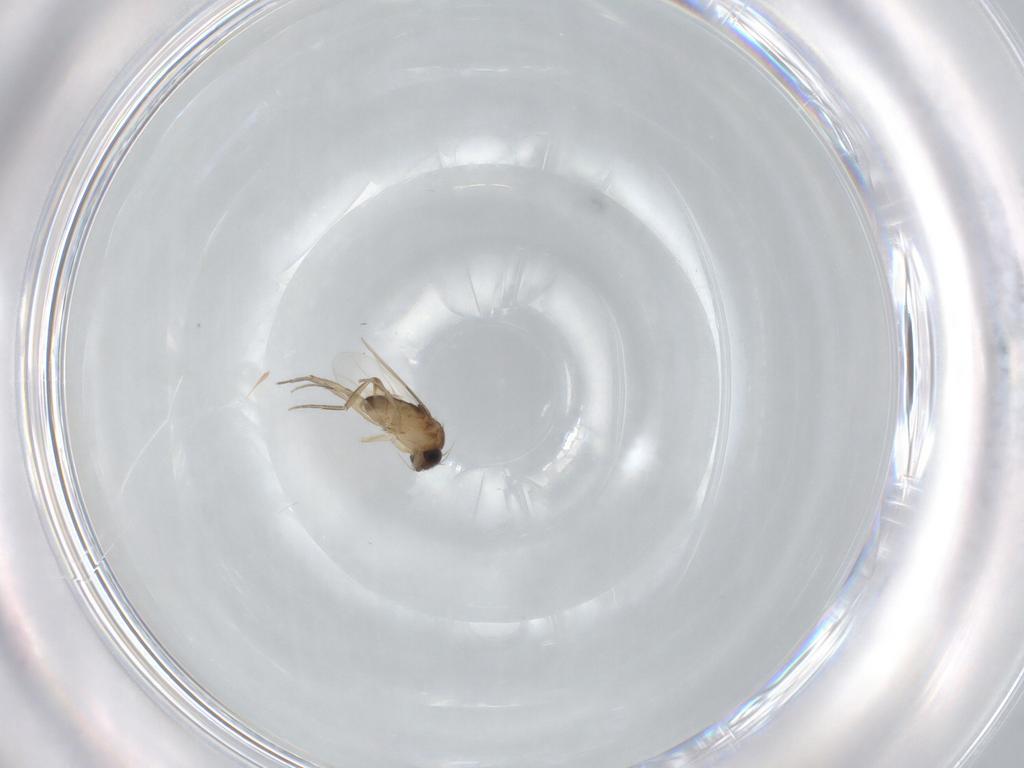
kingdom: Animalia
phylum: Arthropoda
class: Insecta
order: Diptera
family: Phoridae
